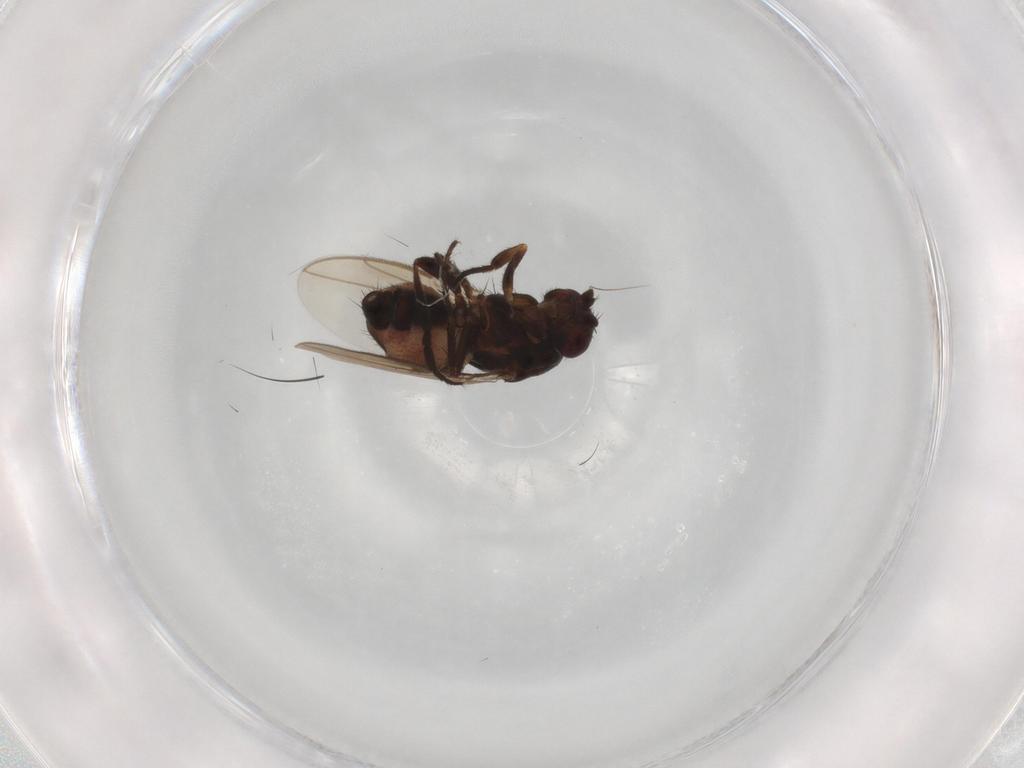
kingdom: Animalia
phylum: Arthropoda
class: Insecta
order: Diptera
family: Sphaeroceridae
